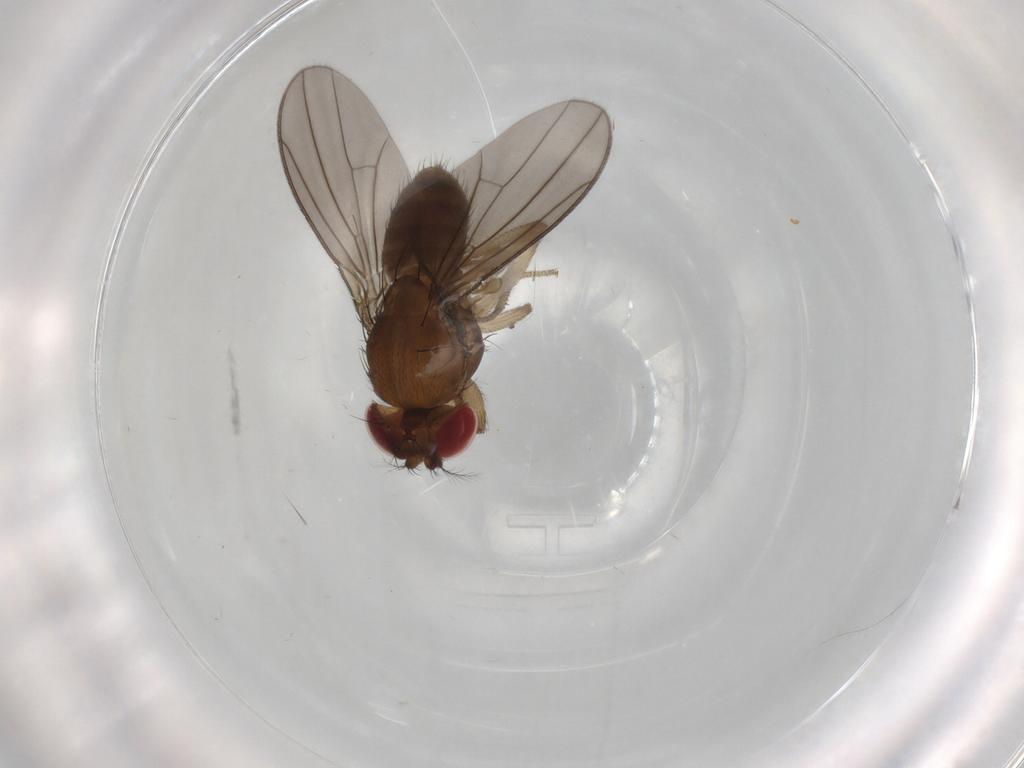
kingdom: Animalia
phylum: Arthropoda
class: Insecta
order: Diptera
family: Drosophilidae
